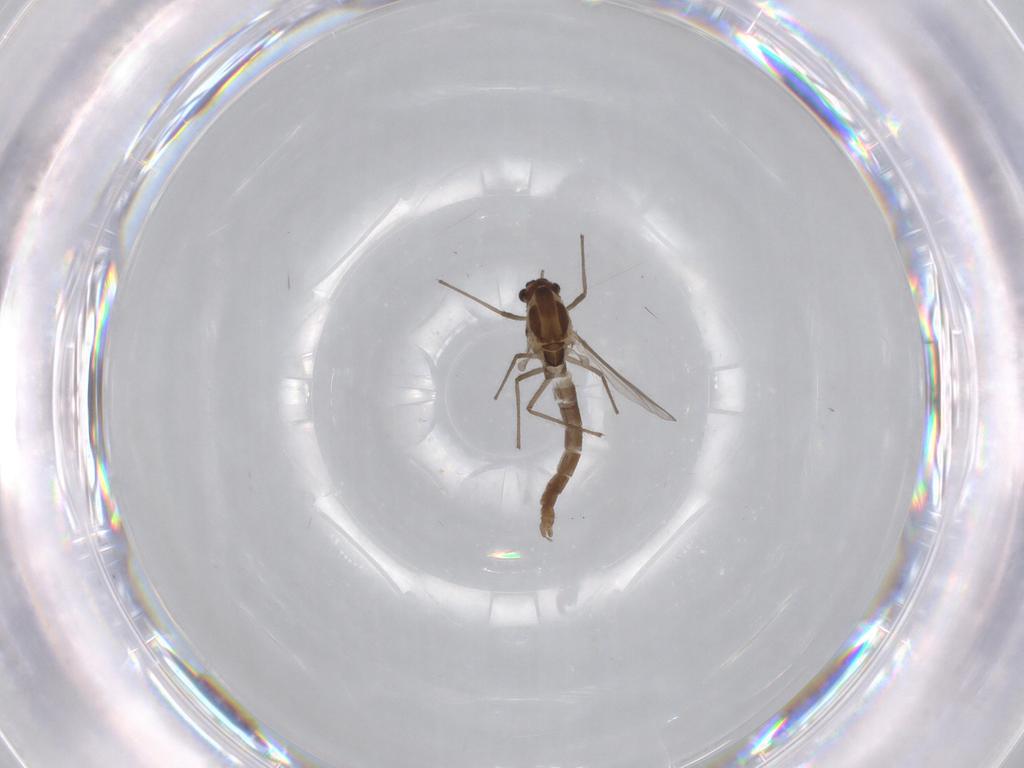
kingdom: Animalia
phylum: Arthropoda
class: Insecta
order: Diptera
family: Chironomidae
